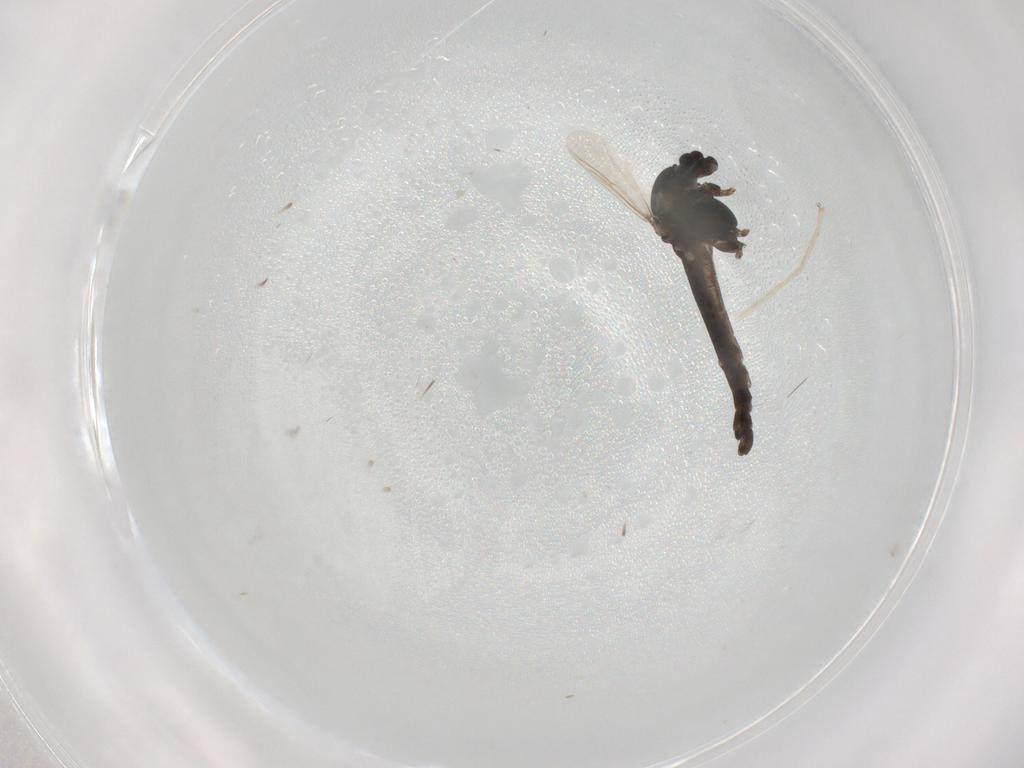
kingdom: Animalia
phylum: Arthropoda
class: Insecta
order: Diptera
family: Chironomidae
